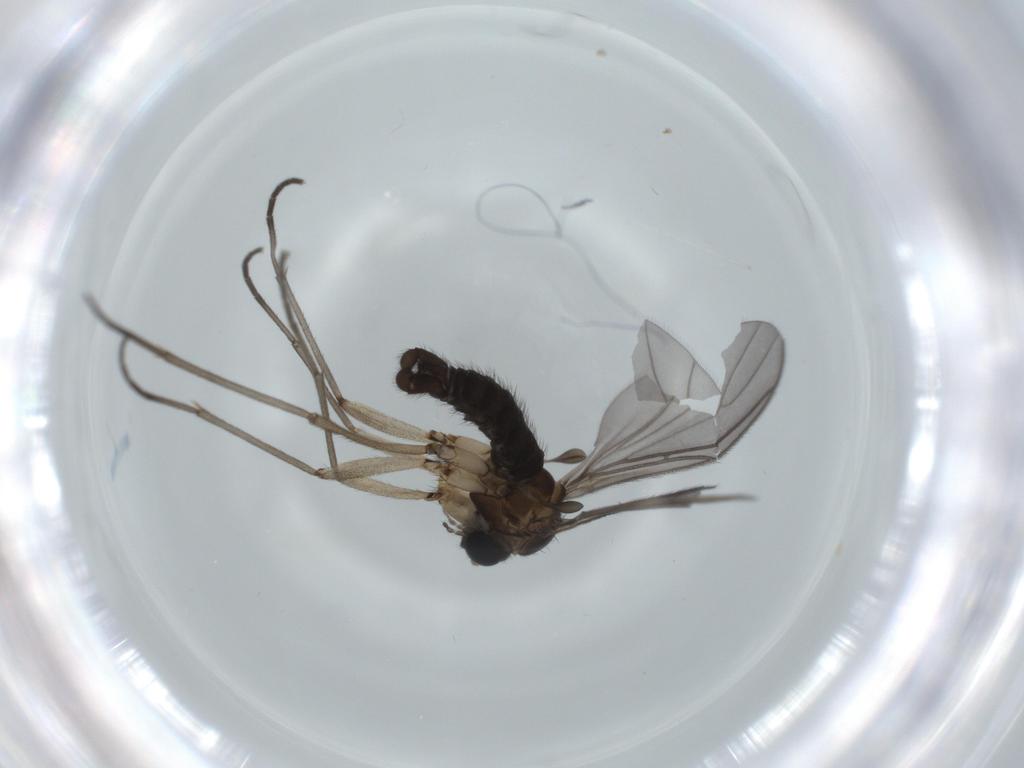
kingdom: Animalia
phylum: Arthropoda
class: Insecta
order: Diptera
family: Sciaridae
